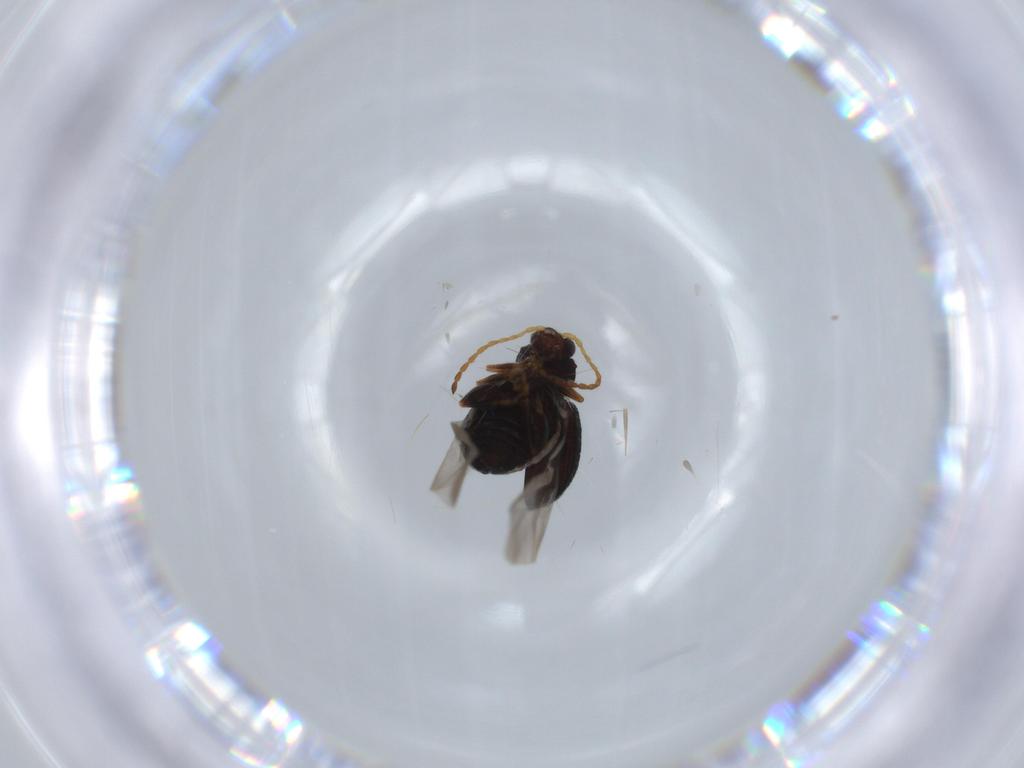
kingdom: Animalia
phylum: Arthropoda
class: Insecta
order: Coleoptera
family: Chrysomelidae
